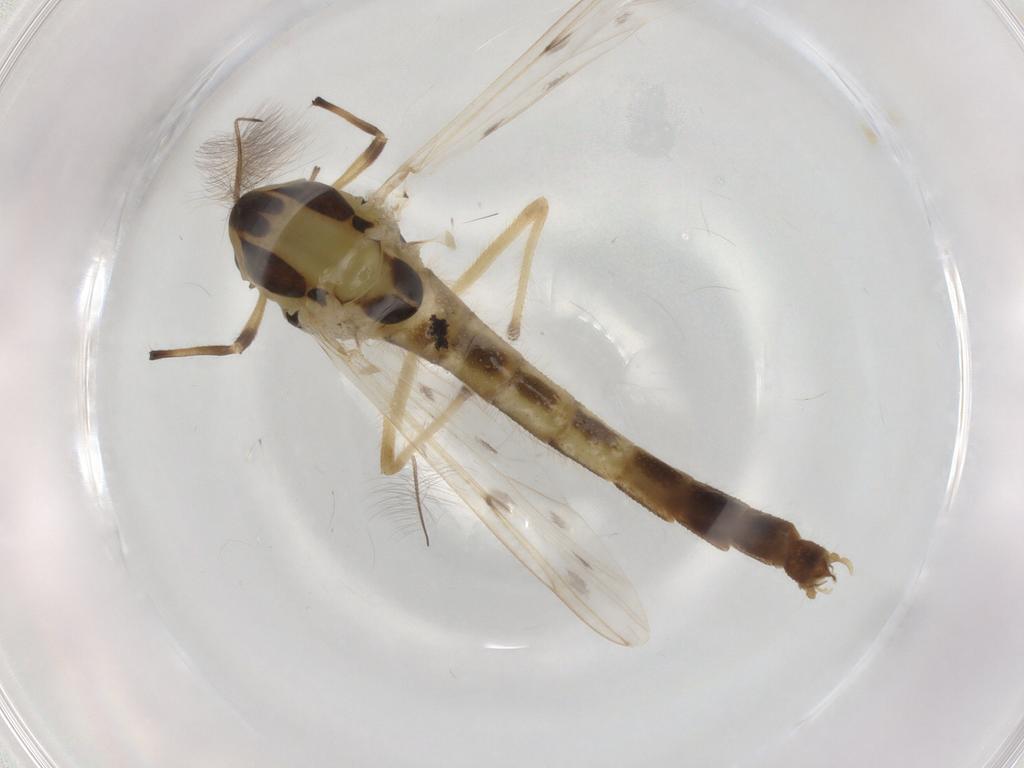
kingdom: Animalia
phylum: Arthropoda
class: Insecta
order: Diptera
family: Ceratopogonidae
